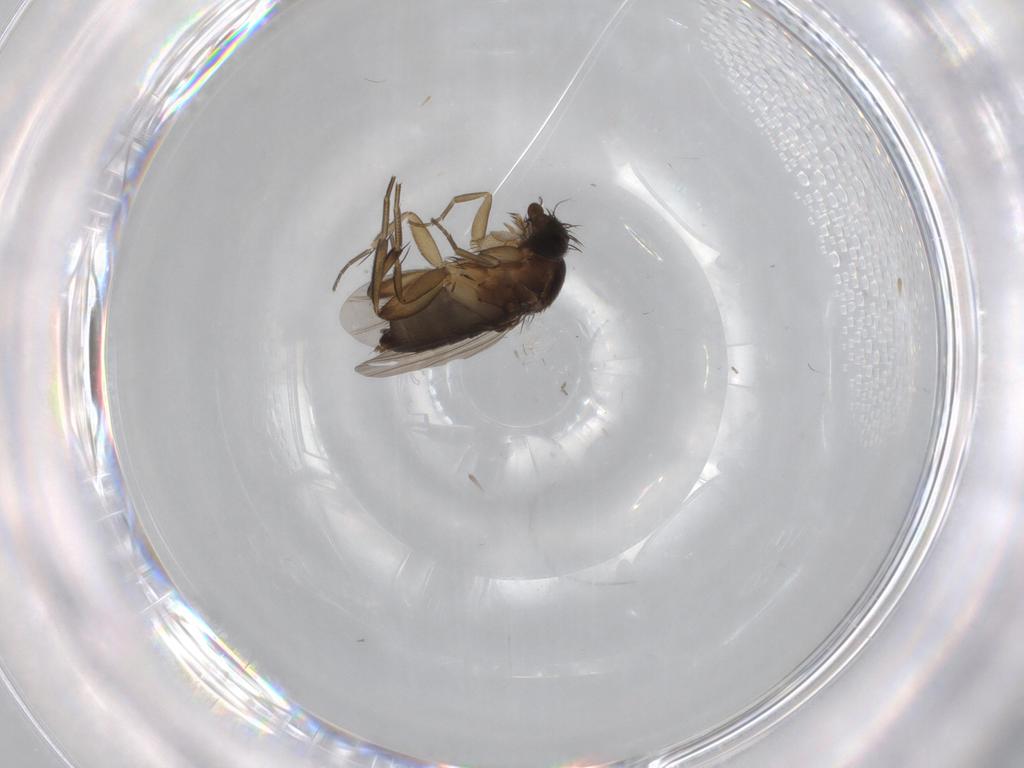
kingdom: Animalia
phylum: Arthropoda
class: Insecta
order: Diptera
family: Phoridae
